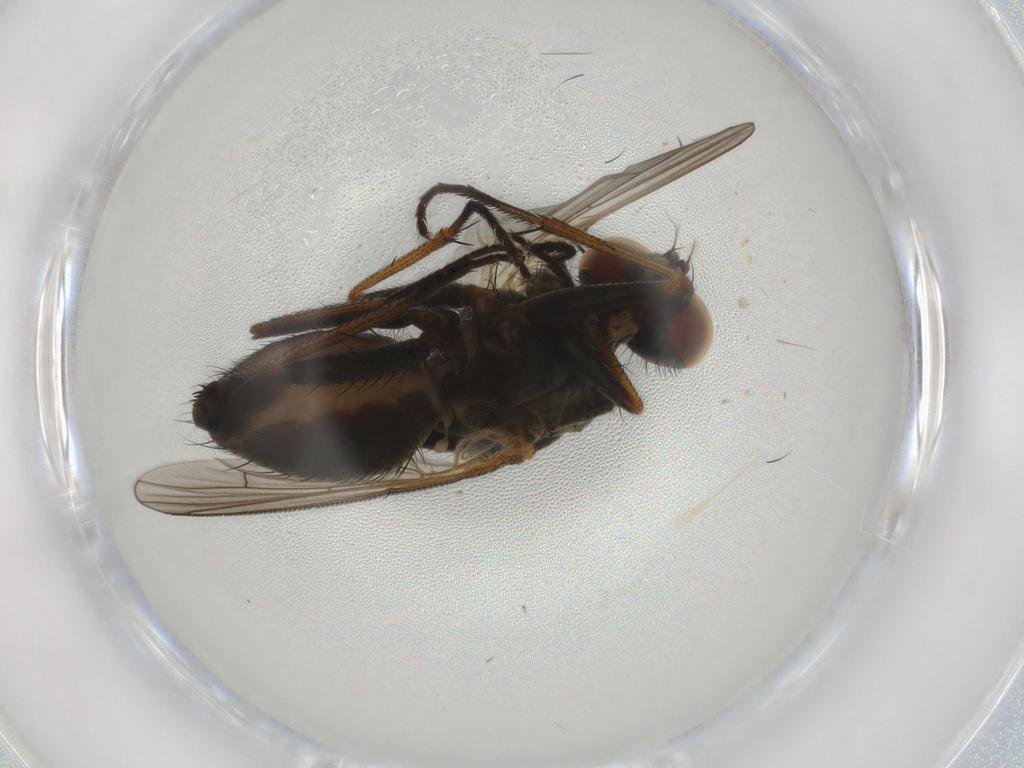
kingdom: Animalia
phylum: Arthropoda
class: Insecta
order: Diptera
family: Muscidae
